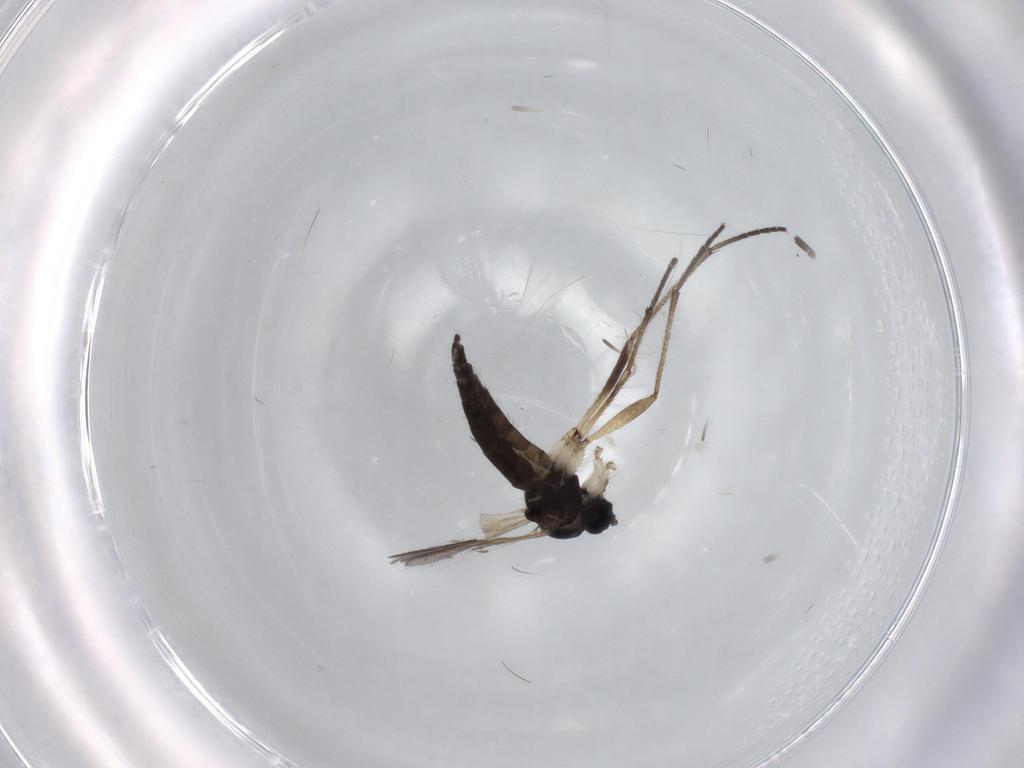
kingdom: Animalia
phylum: Arthropoda
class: Insecta
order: Diptera
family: Sciaridae
